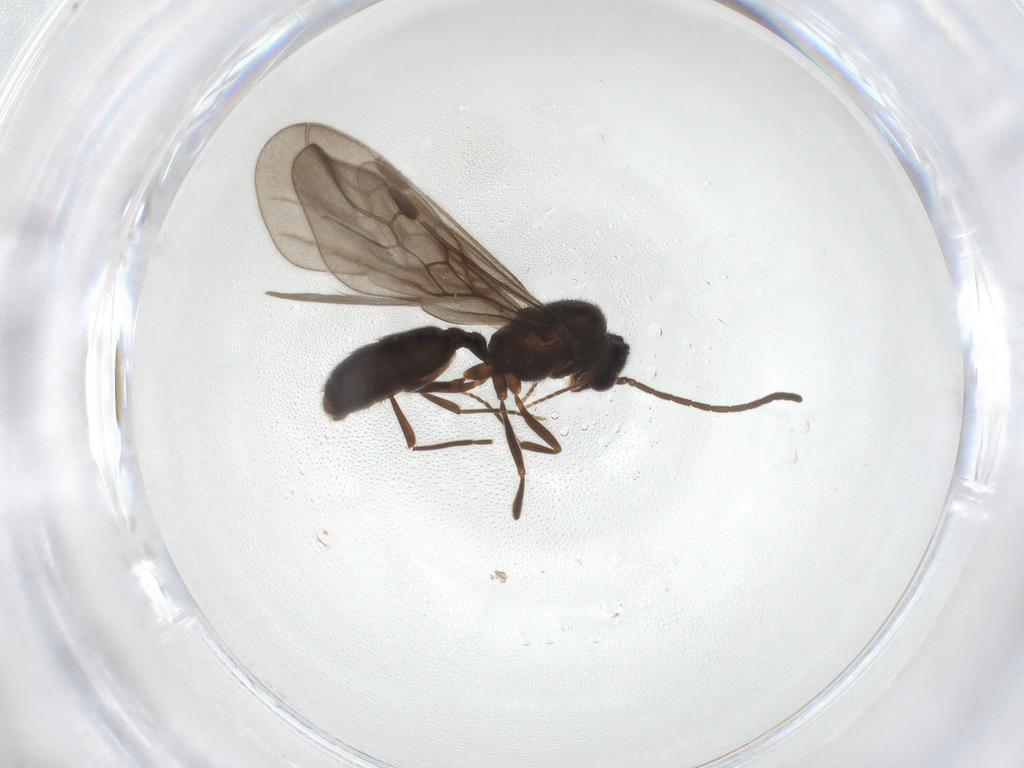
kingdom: Animalia
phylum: Arthropoda
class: Insecta
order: Hymenoptera
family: Formicidae
